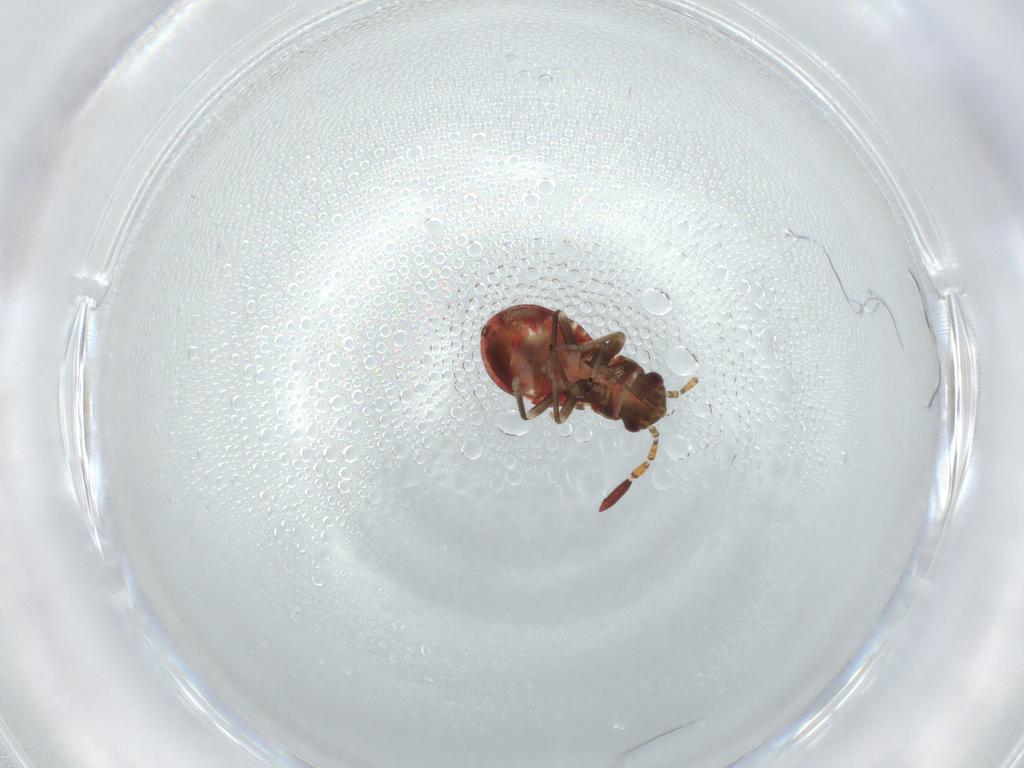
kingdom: Animalia
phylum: Arthropoda
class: Insecta
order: Hemiptera
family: Rhyparochromidae
